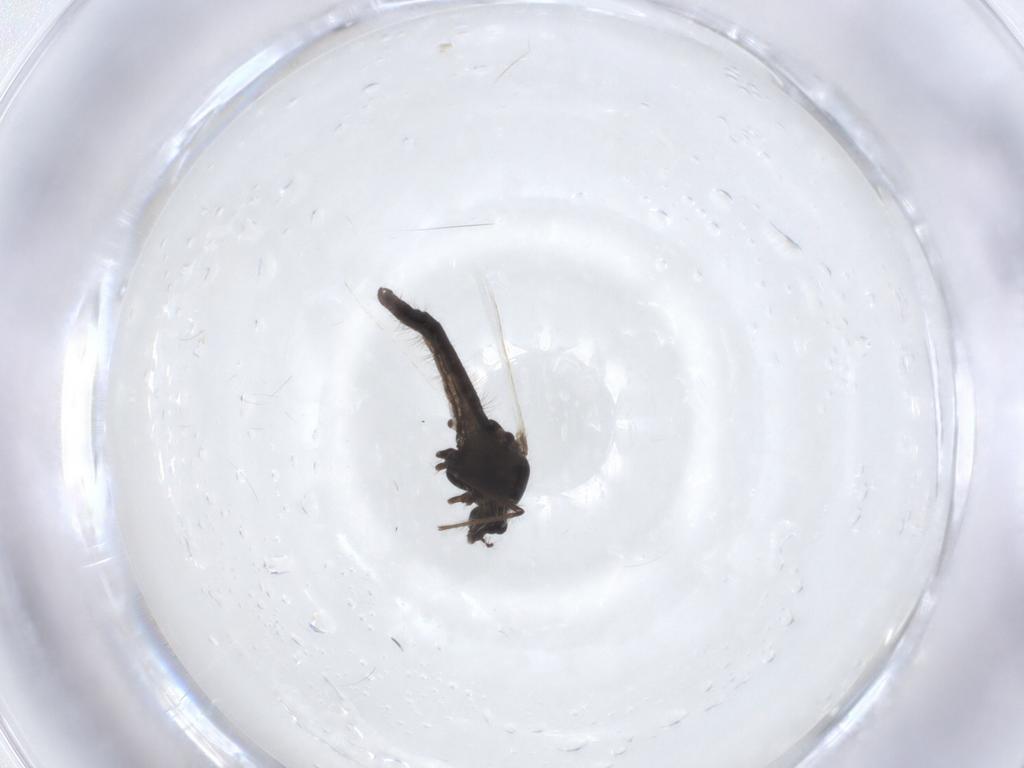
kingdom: Animalia
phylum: Arthropoda
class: Insecta
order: Diptera
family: Chironomidae
